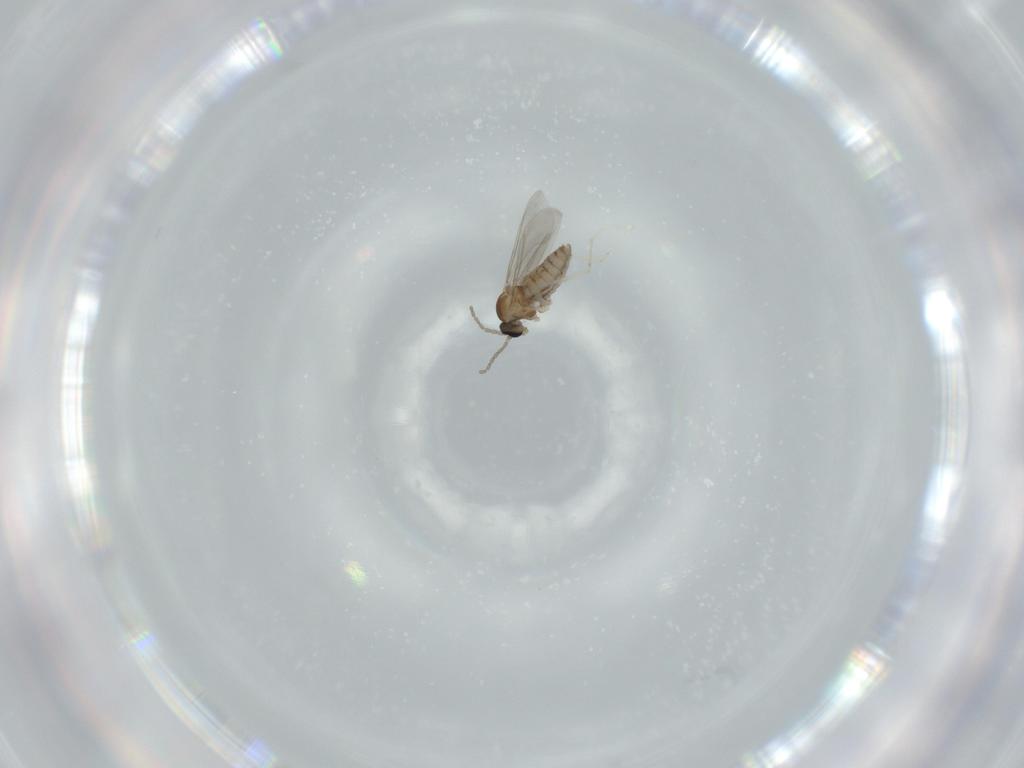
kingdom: Animalia
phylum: Arthropoda
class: Insecta
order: Diptera
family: Cecidomyiidae
